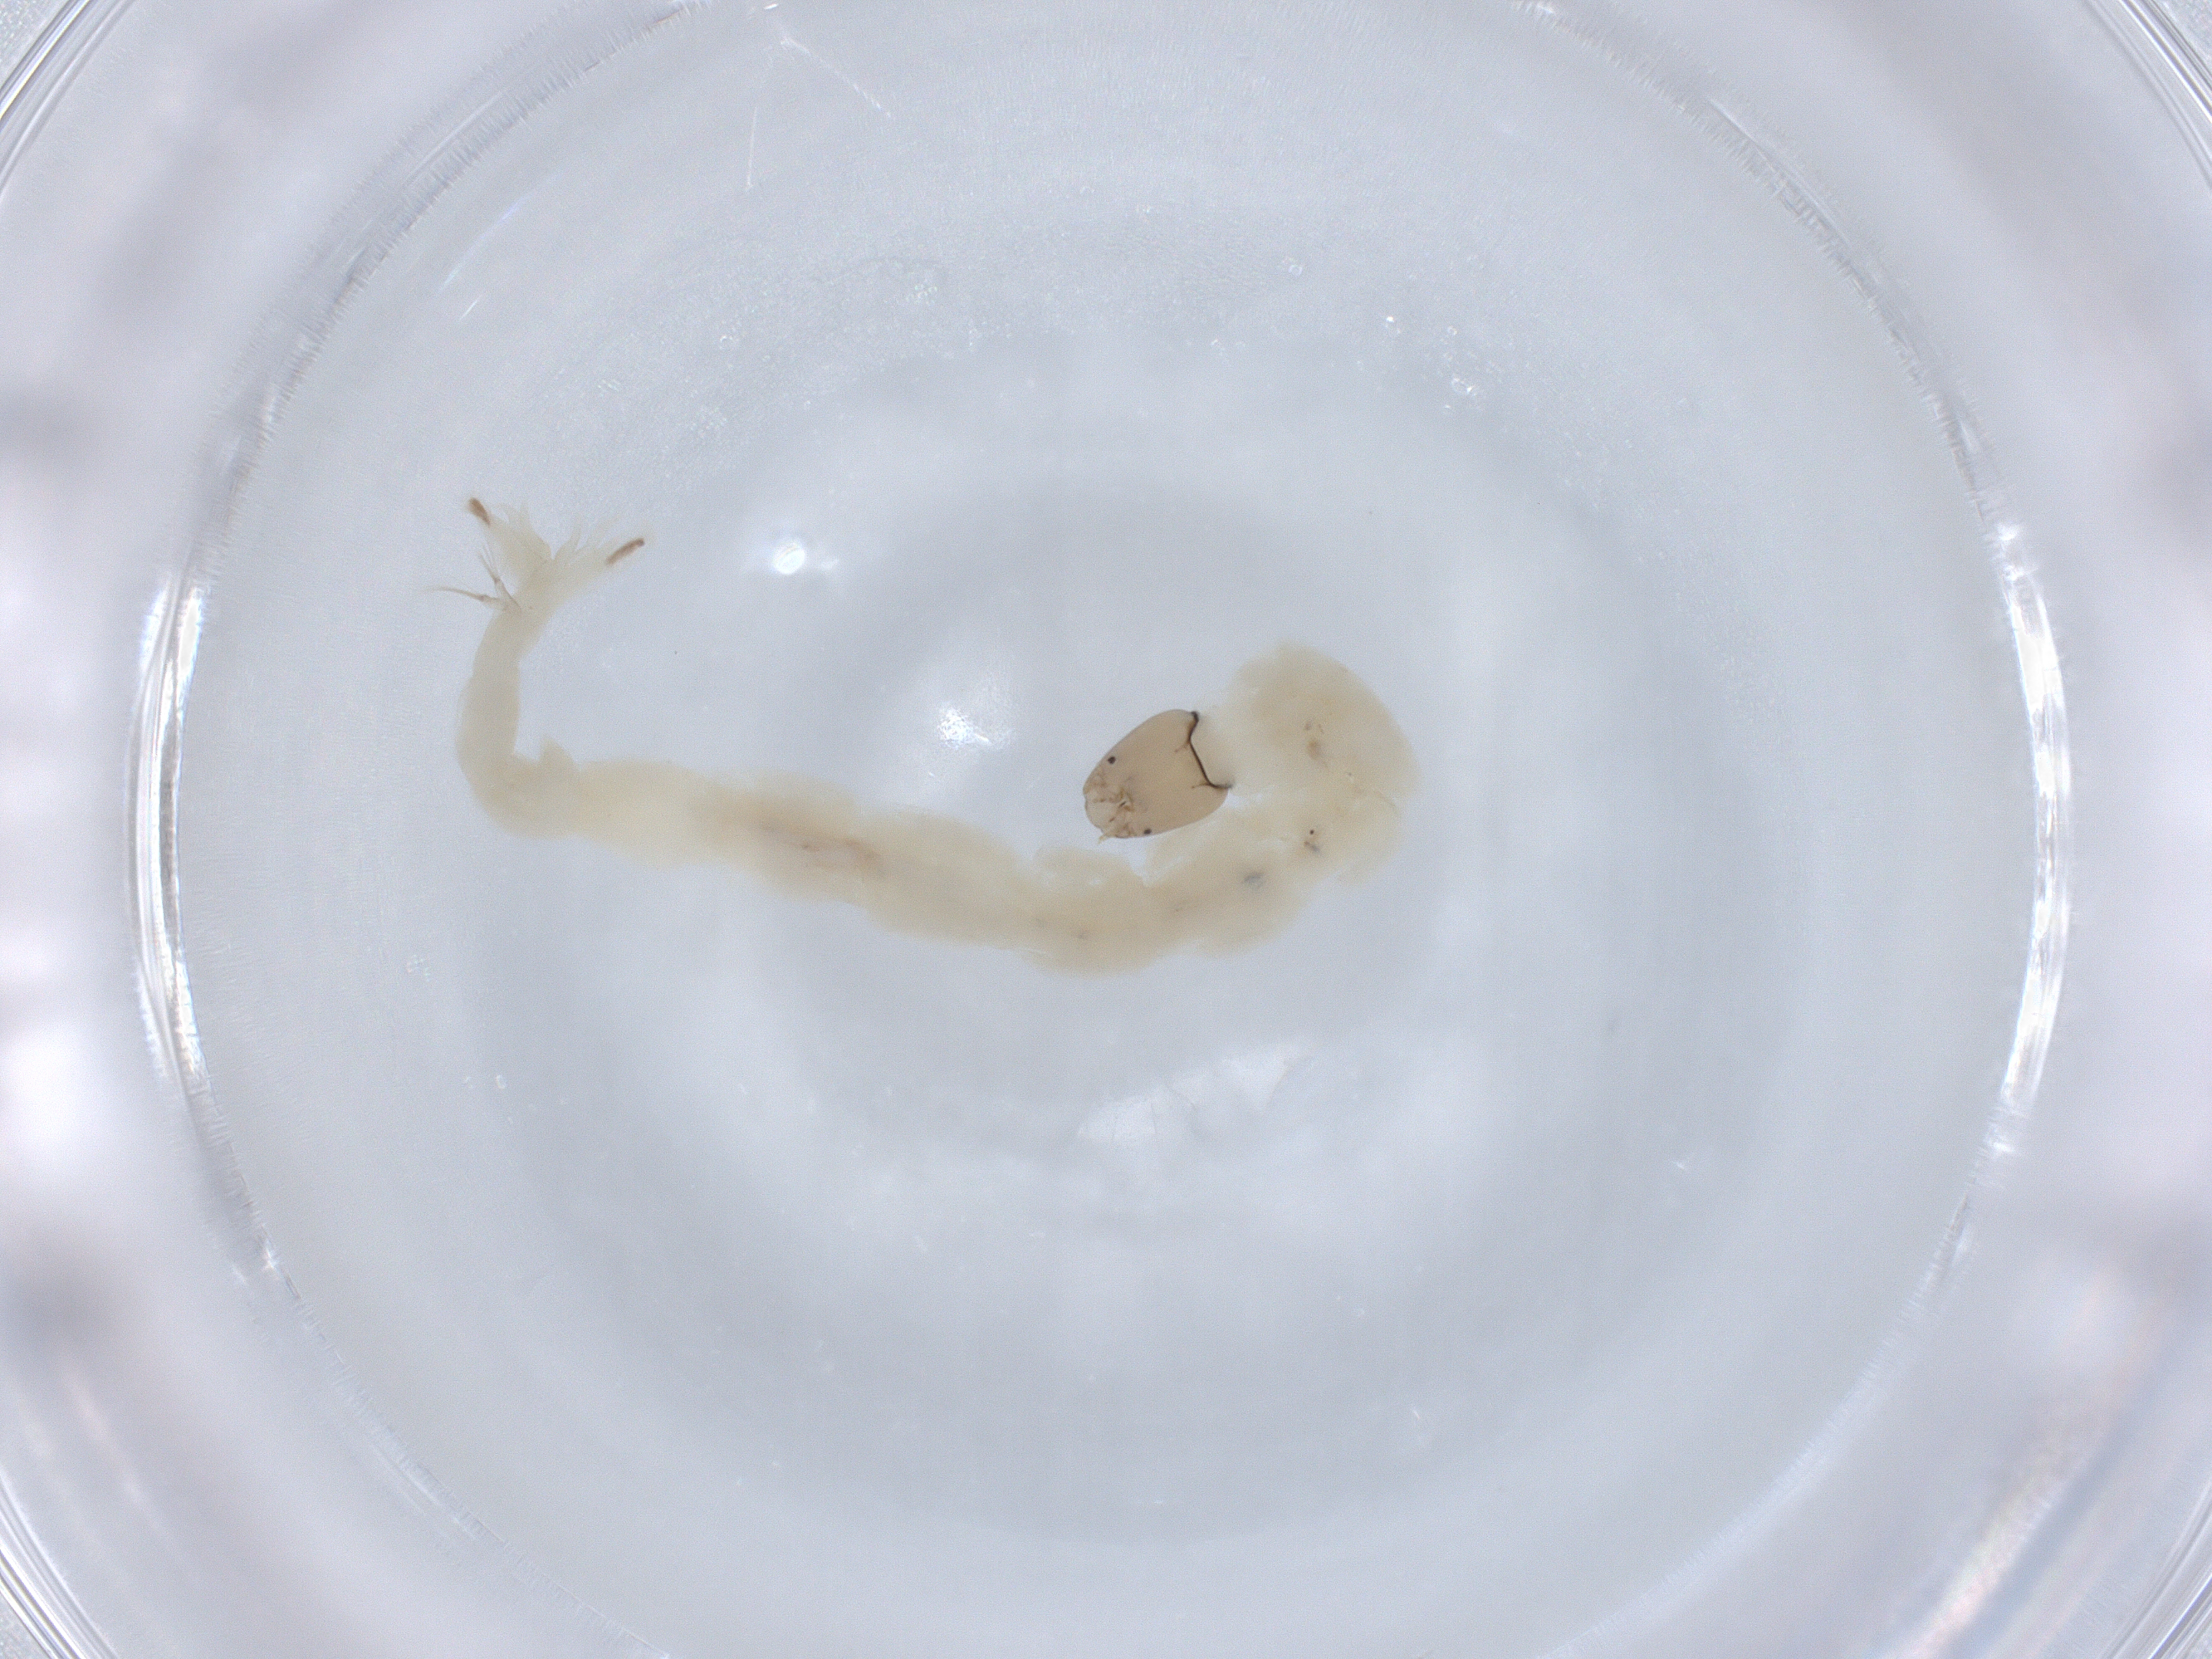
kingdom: Animalia
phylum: Arthropoda
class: Insecta
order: Diptera
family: Chironomidae
